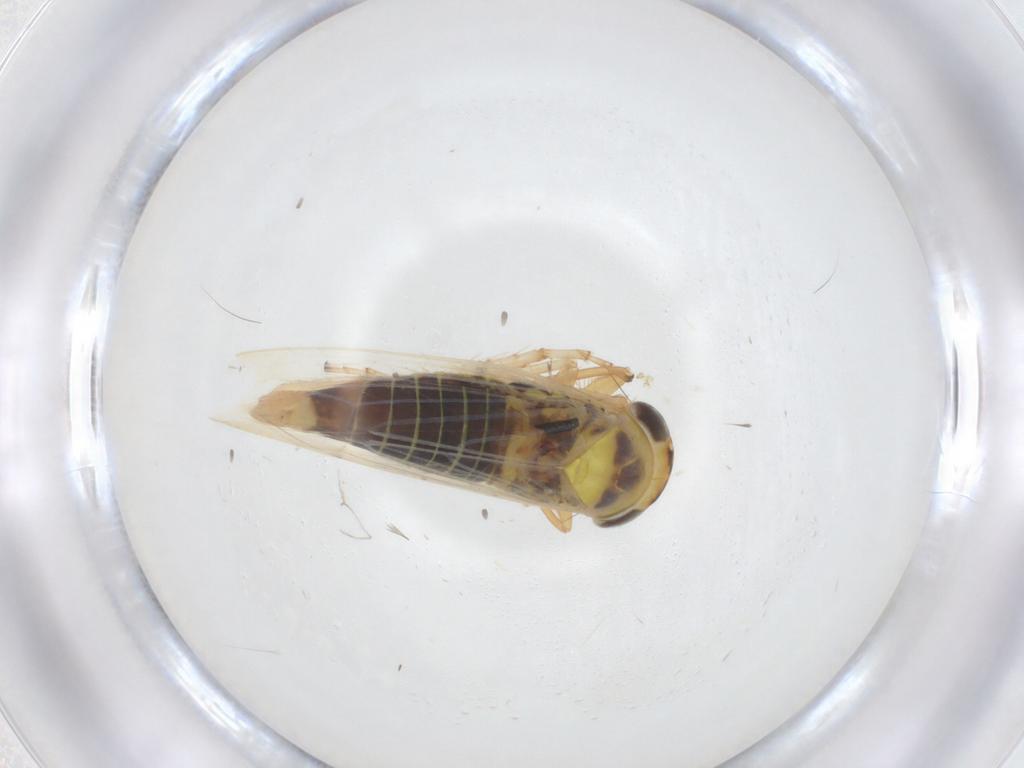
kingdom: Animalia
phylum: Arthropoda
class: Insecta
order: Hemiptera
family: Cicadellidae
